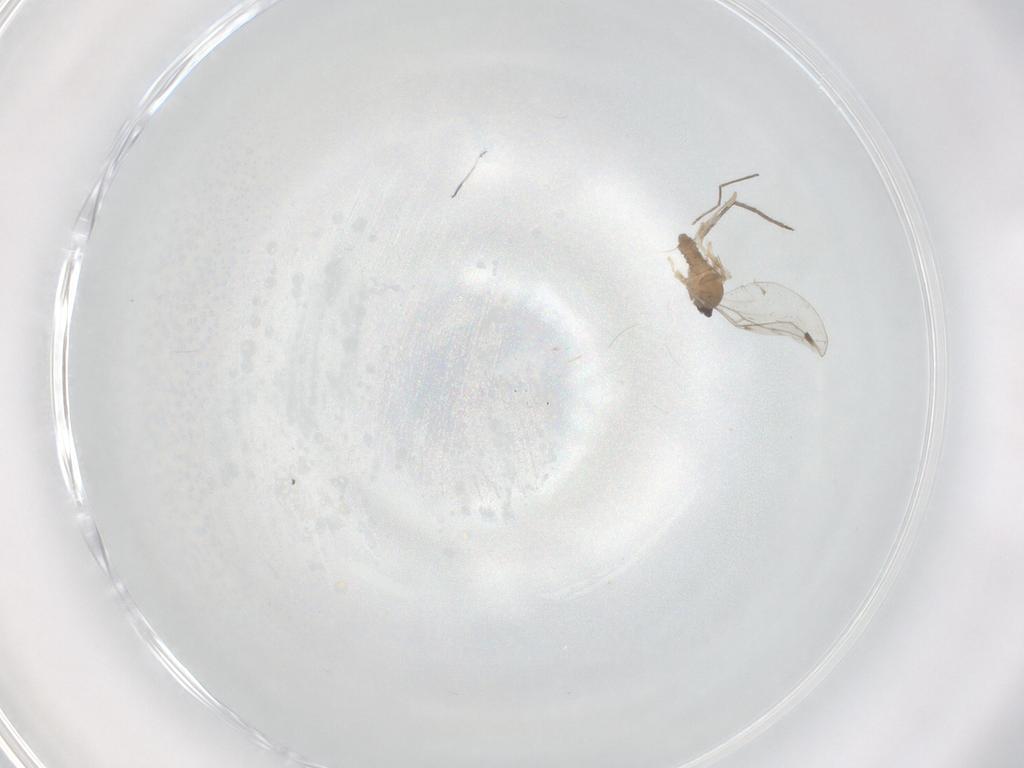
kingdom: Animalia
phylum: Arthropoda
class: Insecta
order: Diptera
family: Chironomidae
